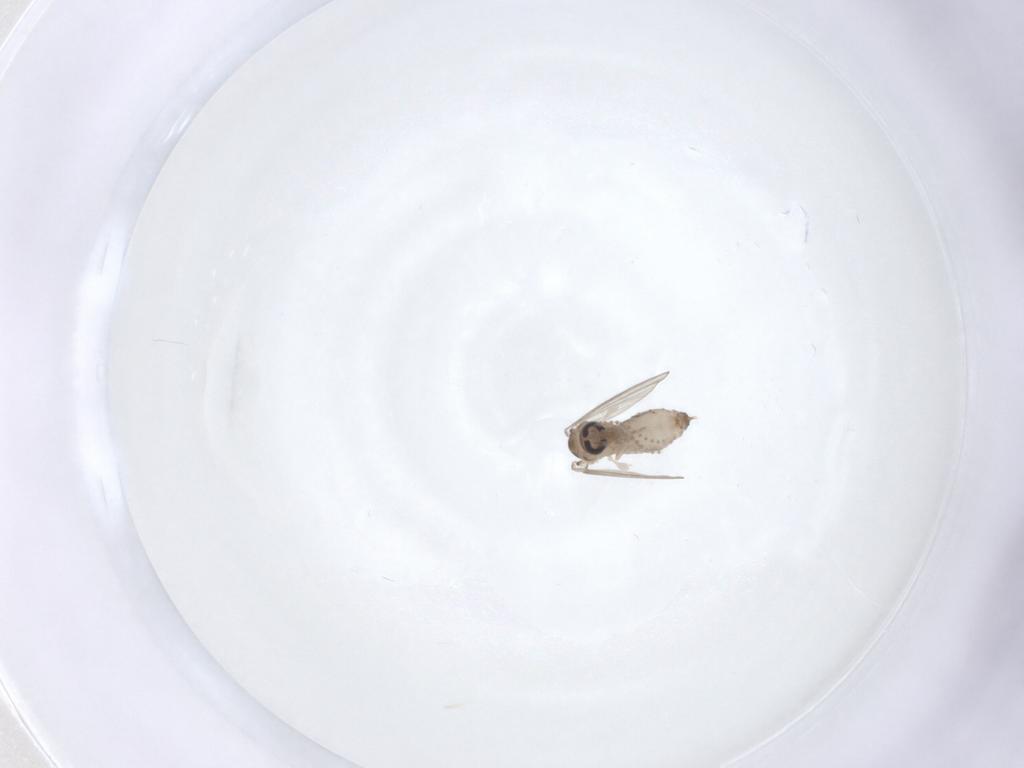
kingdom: Animalia
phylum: Arthropoda
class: Insecta
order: Diptera
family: Psychodidae
